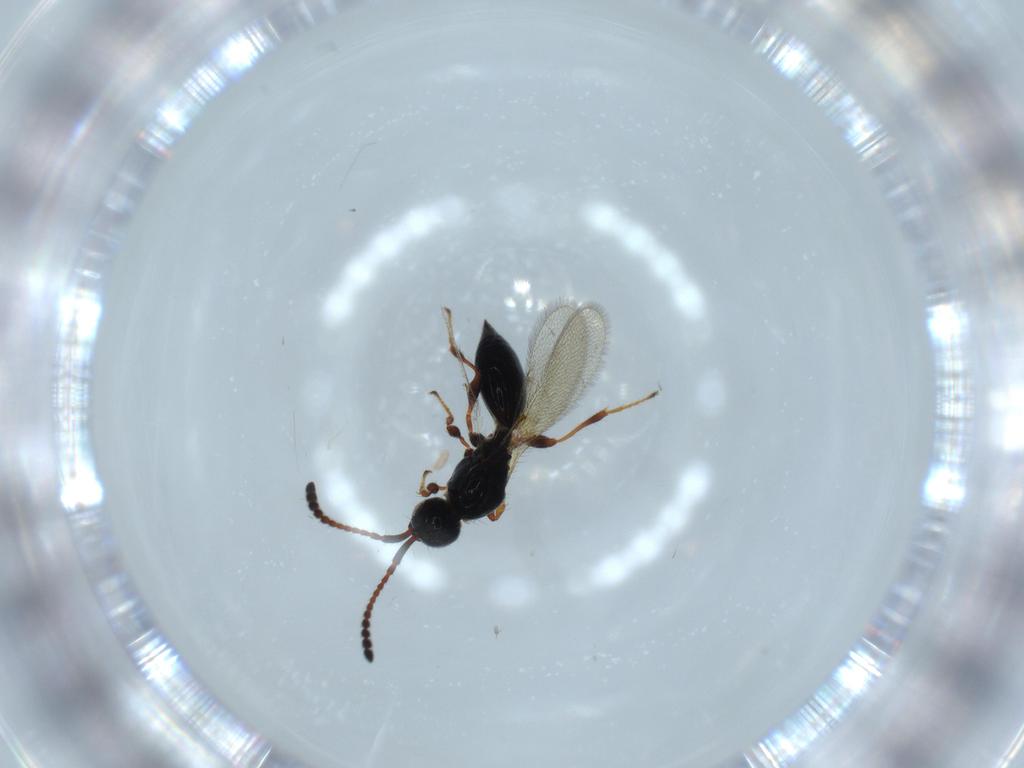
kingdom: Animalia
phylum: Arthropoda
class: Insecta
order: Hymenoptera
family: Diapriidae
